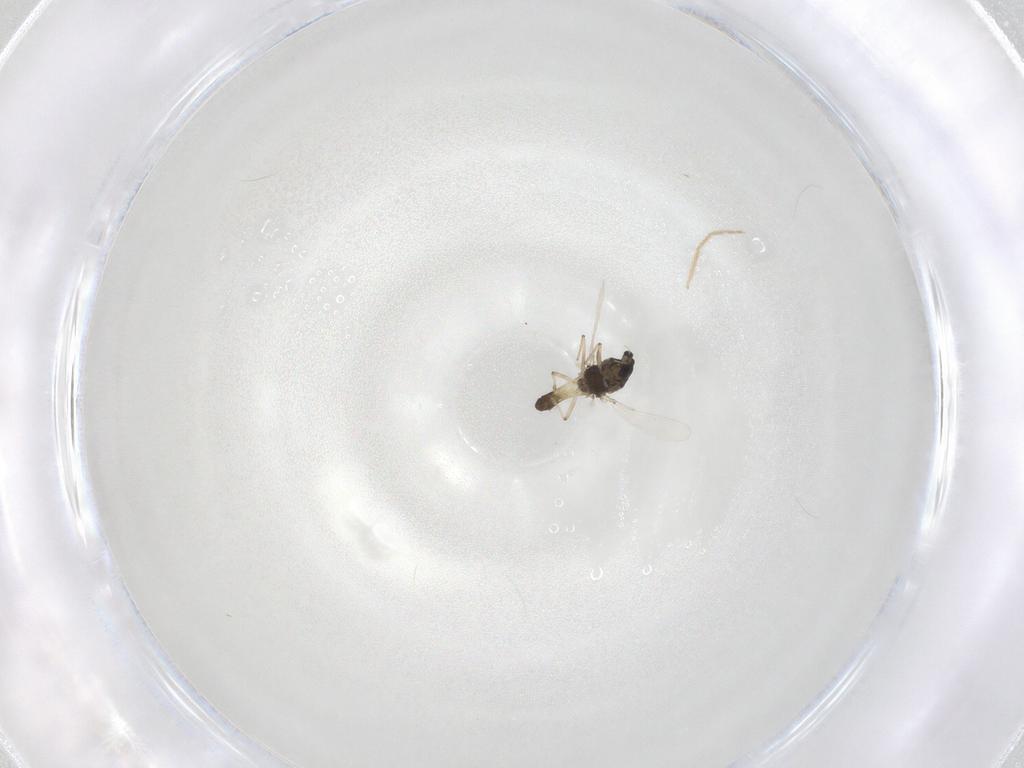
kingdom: Animalia
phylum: Arthropoda
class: Insecta
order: Diptera
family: Chironomidae
